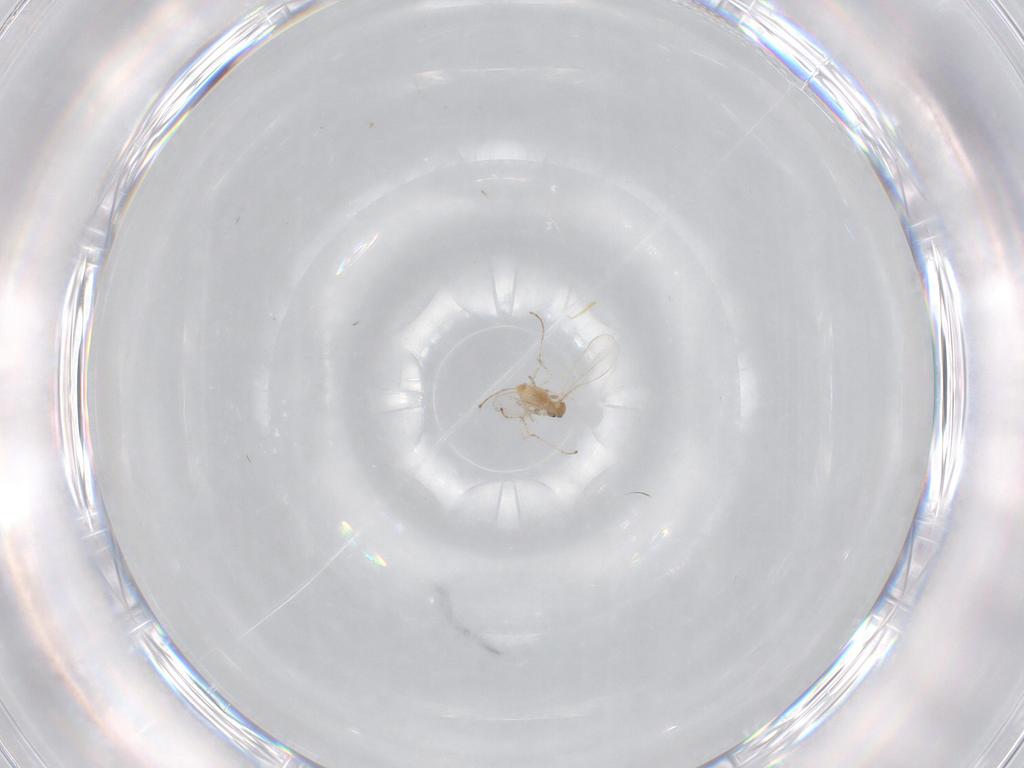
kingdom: Animalia
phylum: Arthropoda
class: Insecta
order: Diptera
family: Cecidomyiidae
